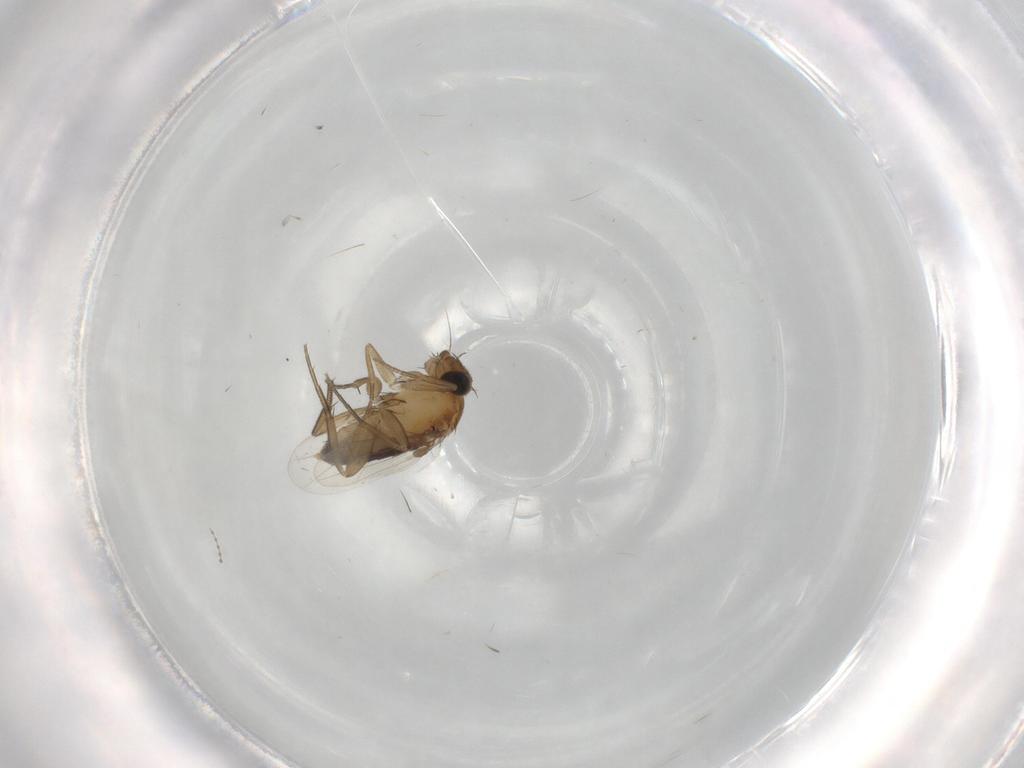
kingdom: Animalia
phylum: Arthropoda
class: Insecta
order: Diptera
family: Phoridae
